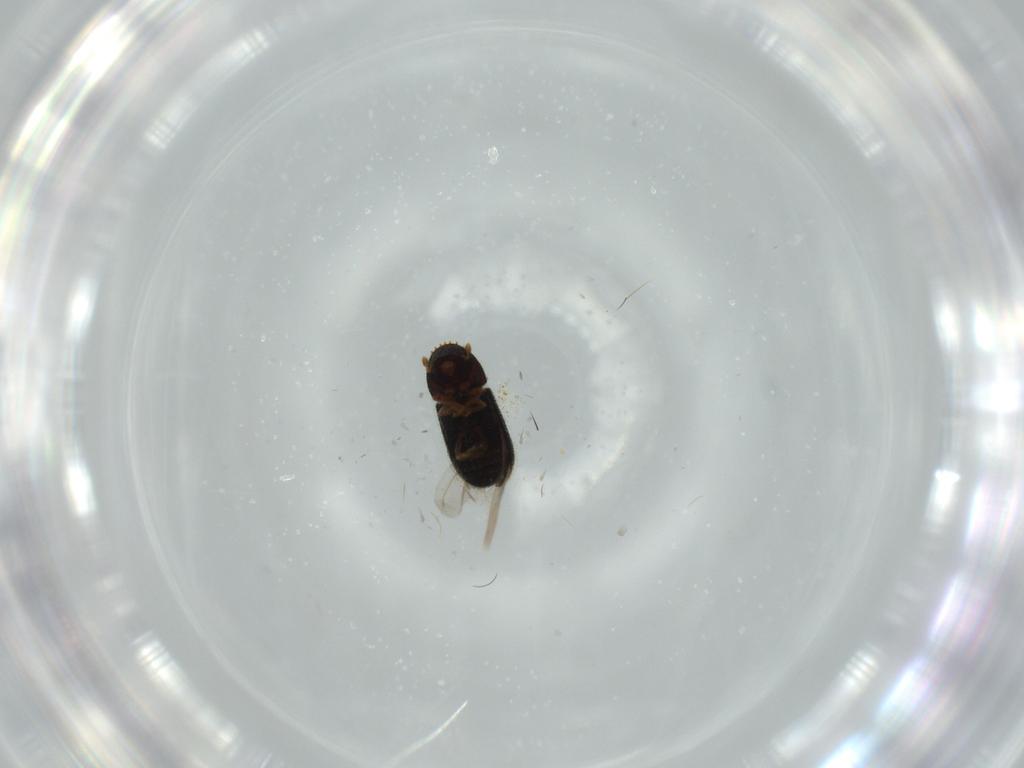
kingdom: Animalia
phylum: Arthropoda
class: Insecta
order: Coleoptera
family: Curculionidae
